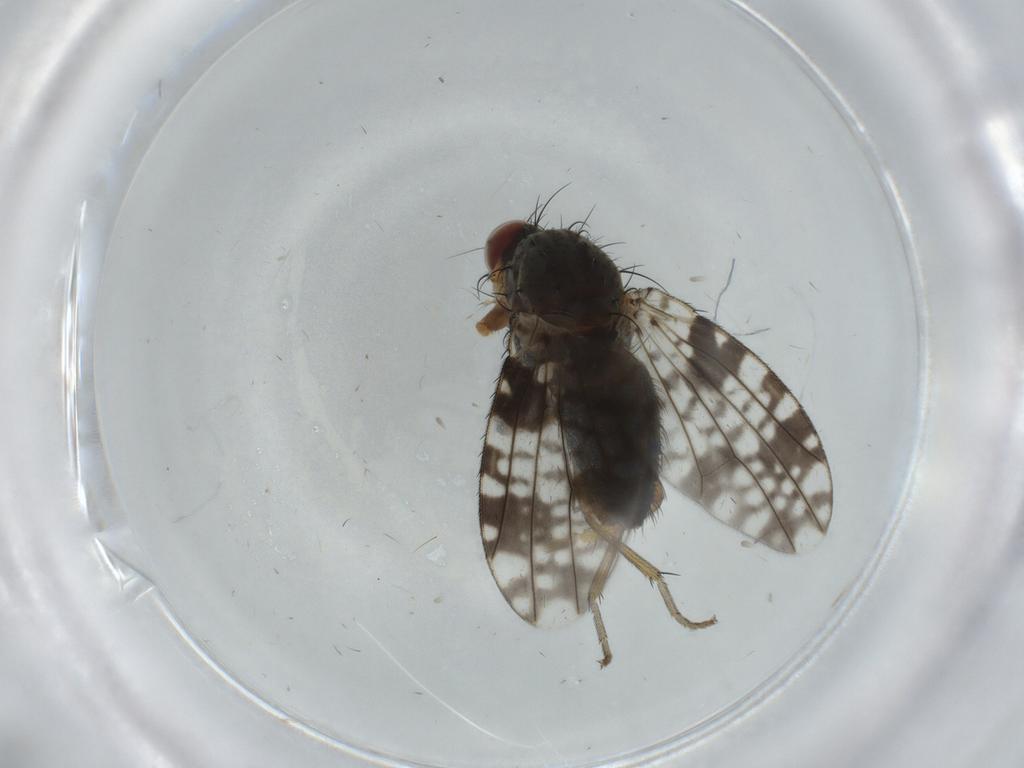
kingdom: Animalia
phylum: Arthropoda
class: Insecta
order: Diptera
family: Tephritidae
